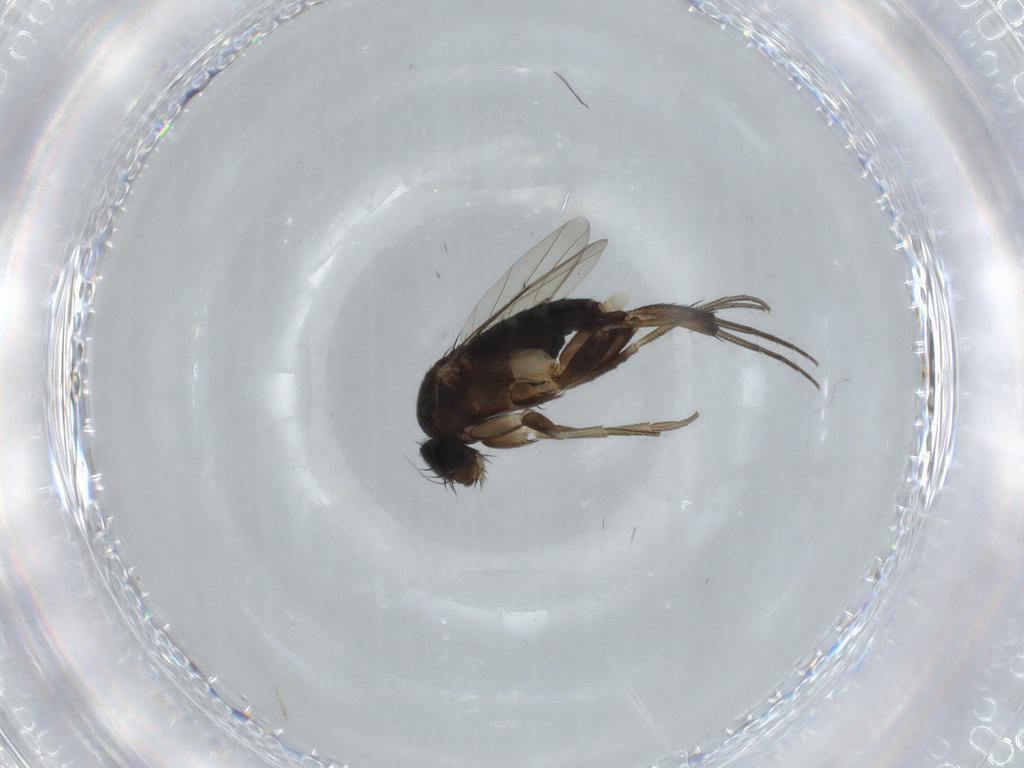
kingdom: Animalia
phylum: Arthropoda
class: Insecta
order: Diptera
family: Phoridae
